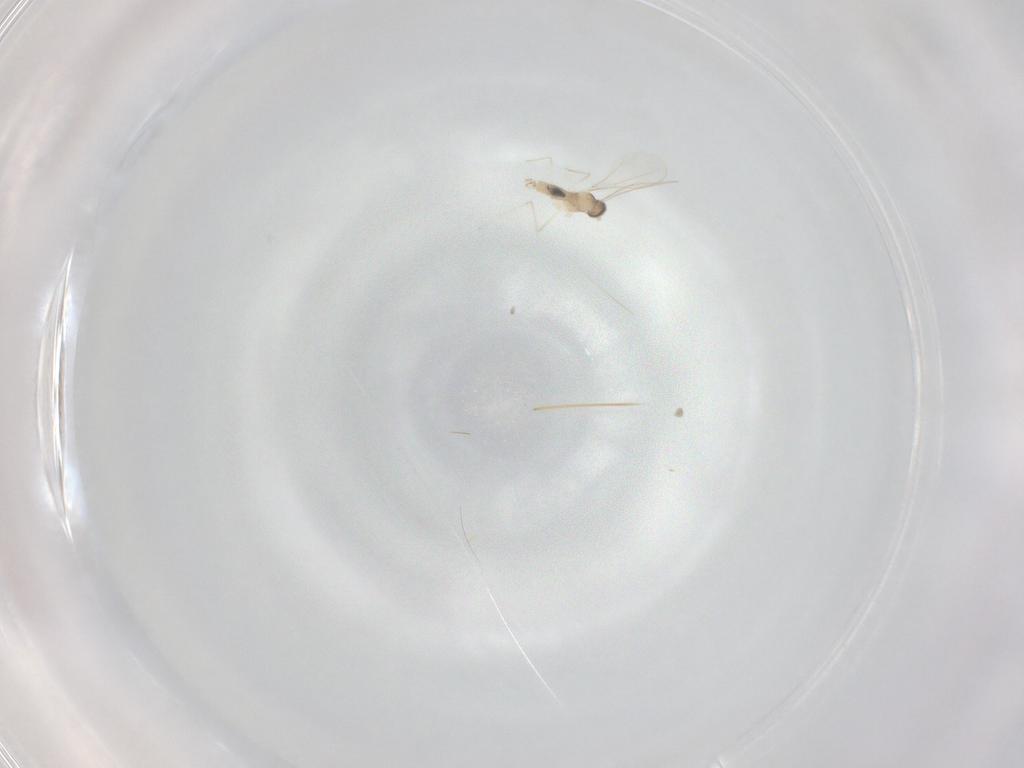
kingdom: Animalia
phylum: Arthropoda
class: Insecta
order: Diptera
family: Cecidomyiidae
